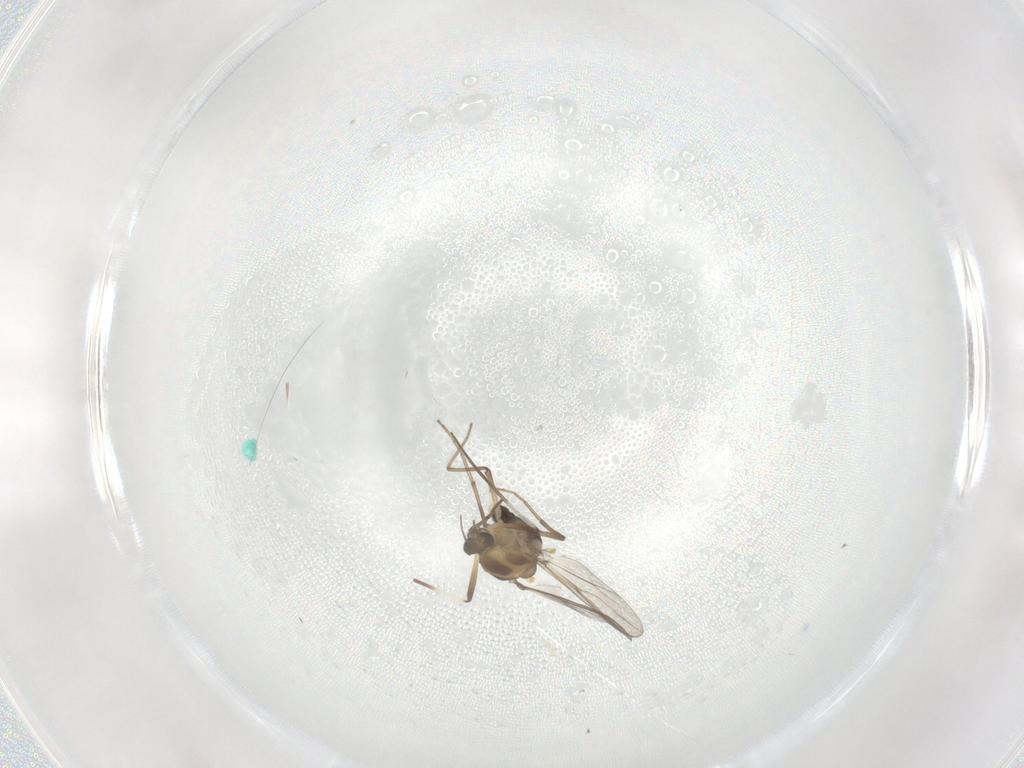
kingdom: Animalia
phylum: Arthropoda
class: Insecta
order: Diptera
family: Chironomidae
